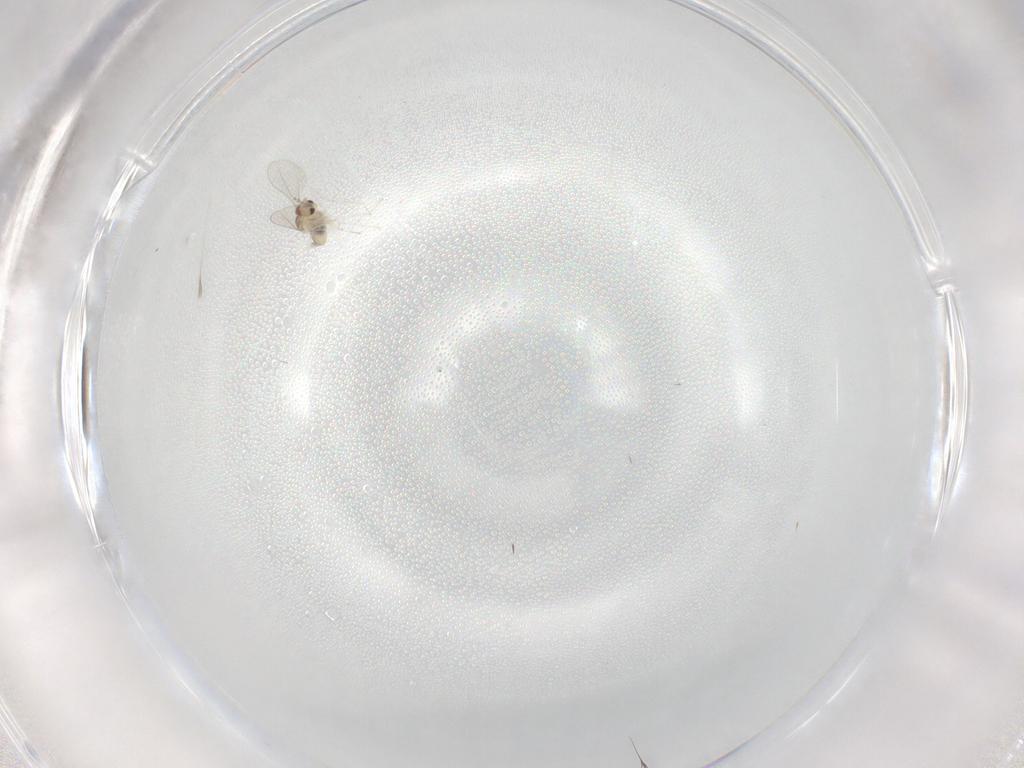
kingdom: Animalia
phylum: Arthropoda
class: Insecta
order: Diptera
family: Cecidomyiidae
